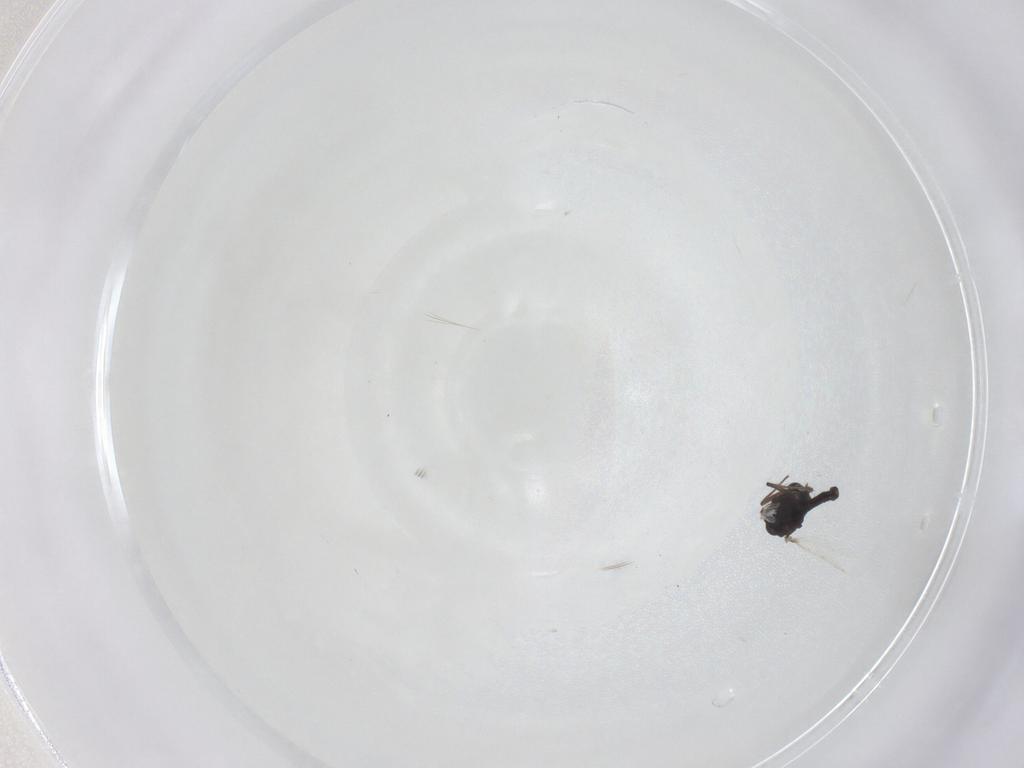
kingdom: Animalia
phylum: Arthropoda
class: Insecta
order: Diptera
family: Chironomidae
